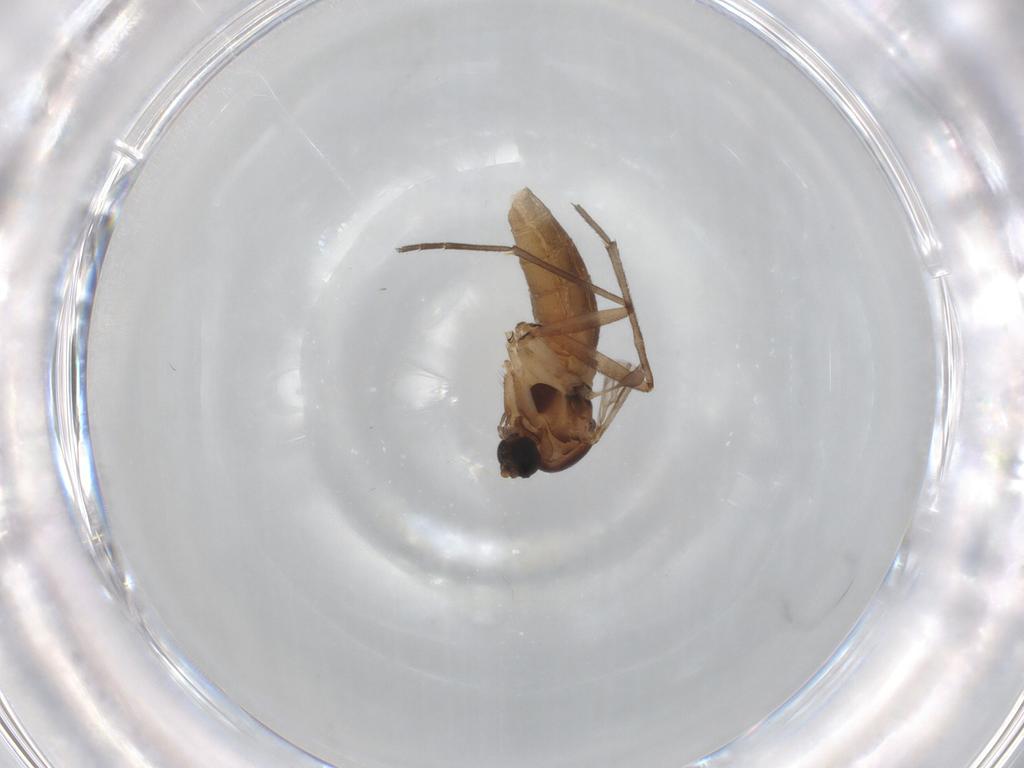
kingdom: Animalia
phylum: Arthropoda
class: Insecta
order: Diptera
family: Sciaridae
